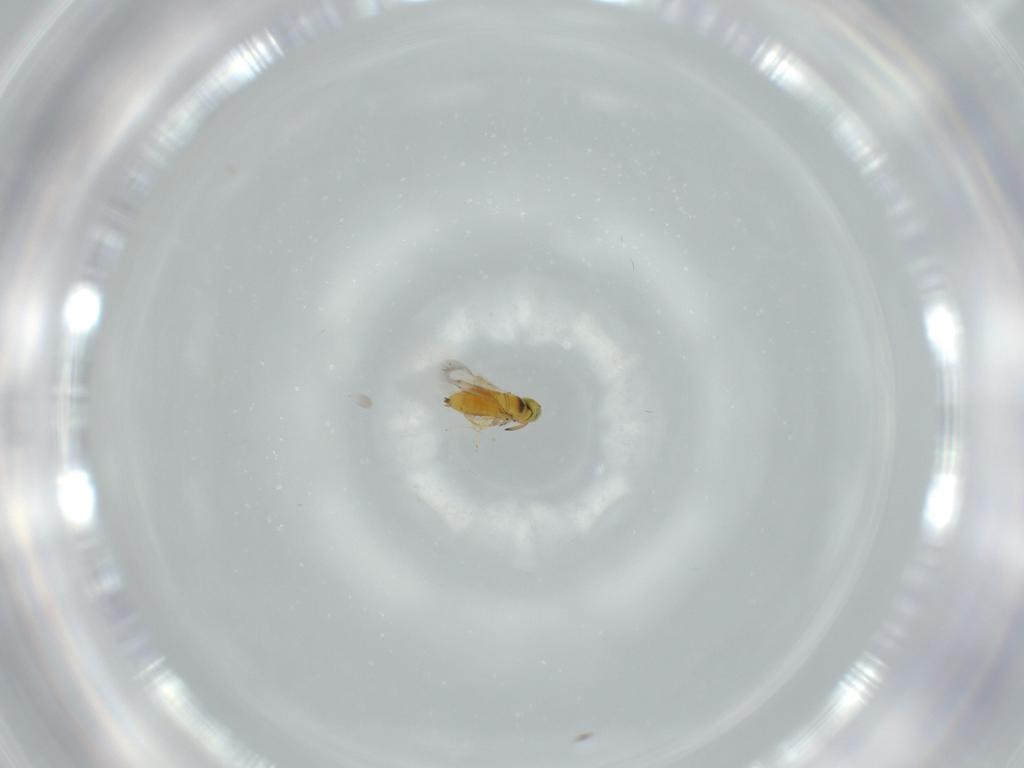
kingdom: Animalia
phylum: Arthropoda
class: Insecta
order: Hymenoptera
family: Signiphoridae
